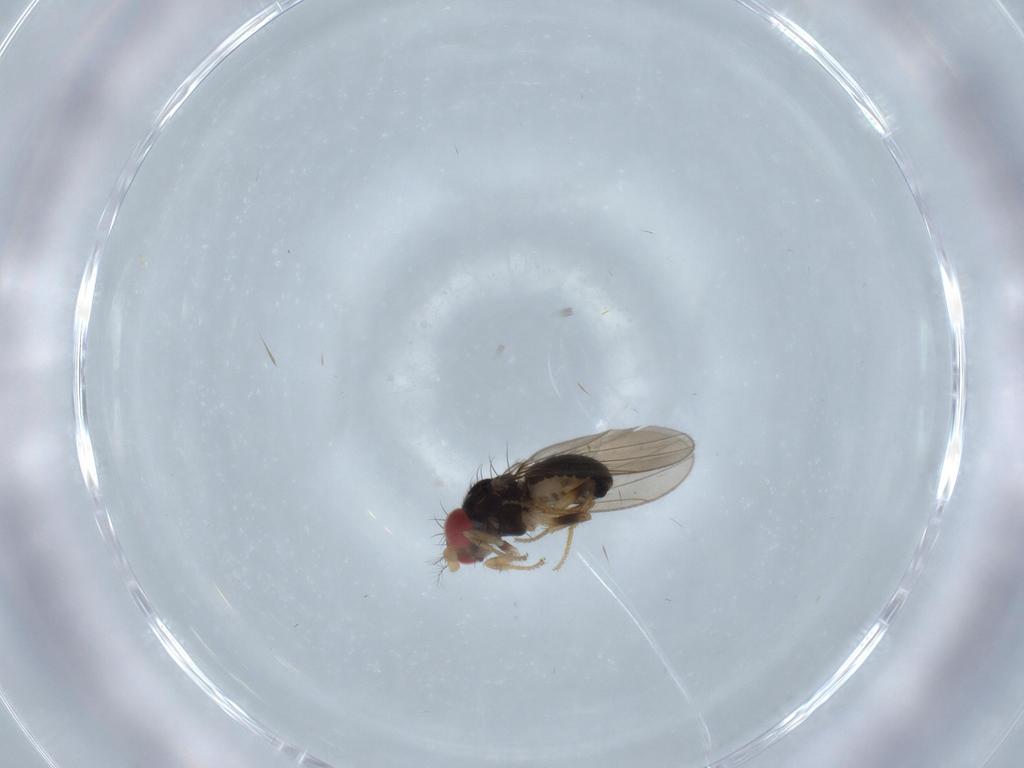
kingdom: Animalia
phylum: Arthropoda
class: Insecta
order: Diptera
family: Drosophilidae
